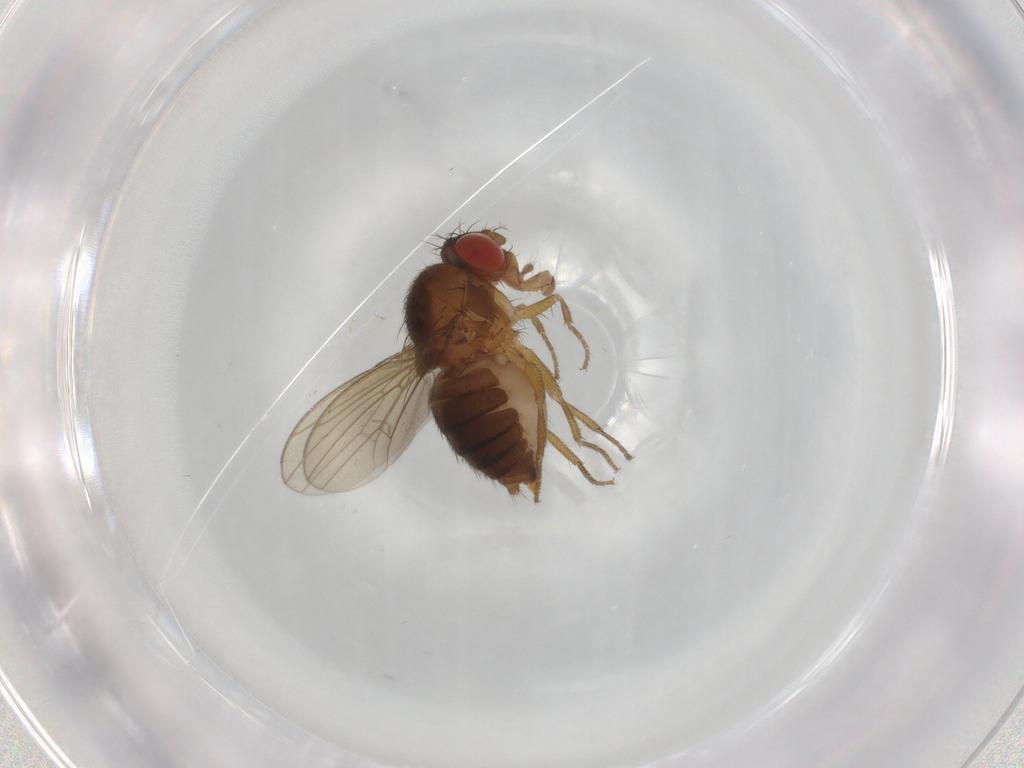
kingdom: Animalia
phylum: Arthropoda
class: Insecta
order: Diptera
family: Drosophilidae
